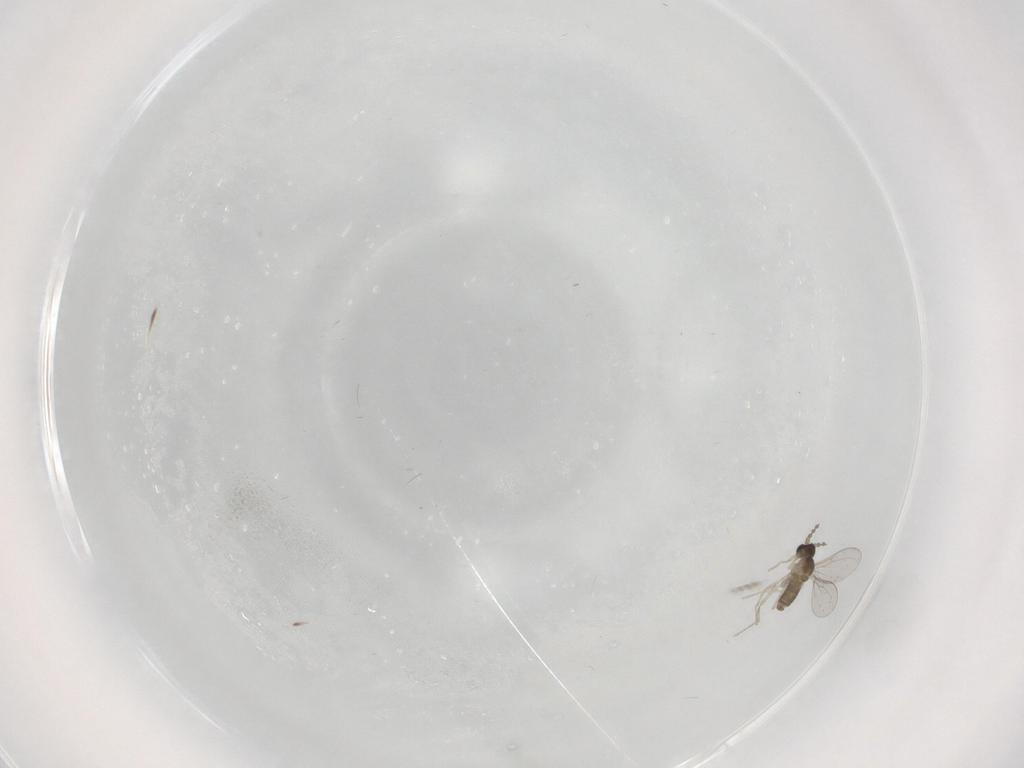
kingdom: Animalia
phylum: Arthropoda
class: Insecta
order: Diptera
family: Cecidomyiidae
